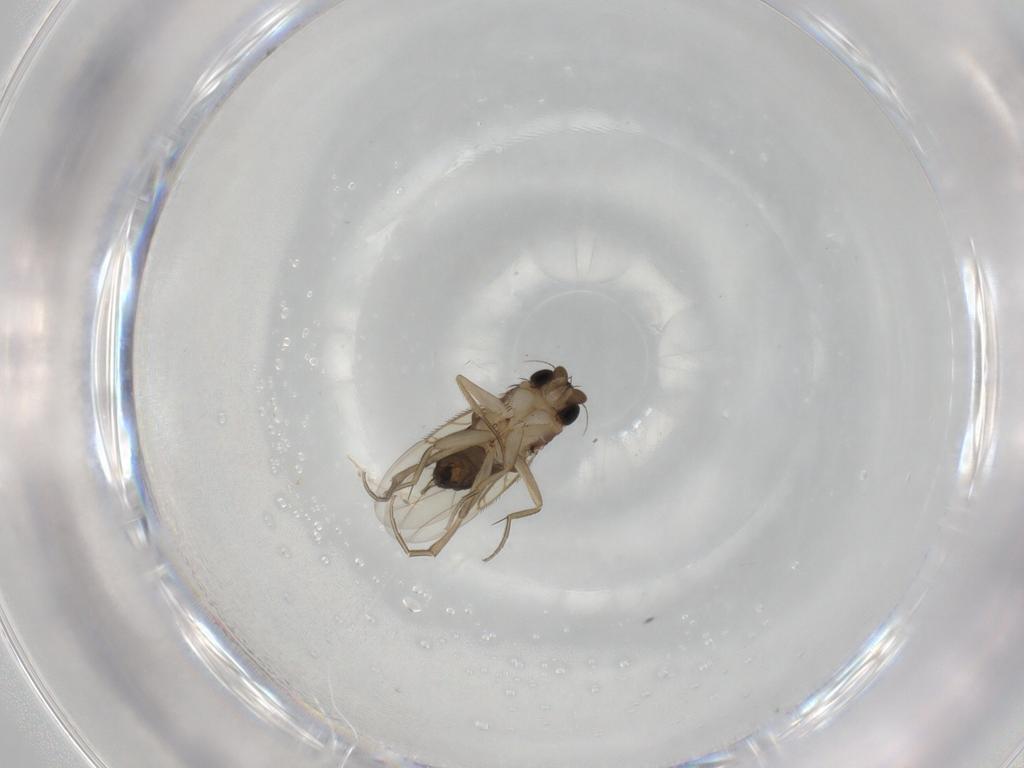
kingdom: Animalia
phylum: Arthropoda
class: Insecta
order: Diptera
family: Phoridae
